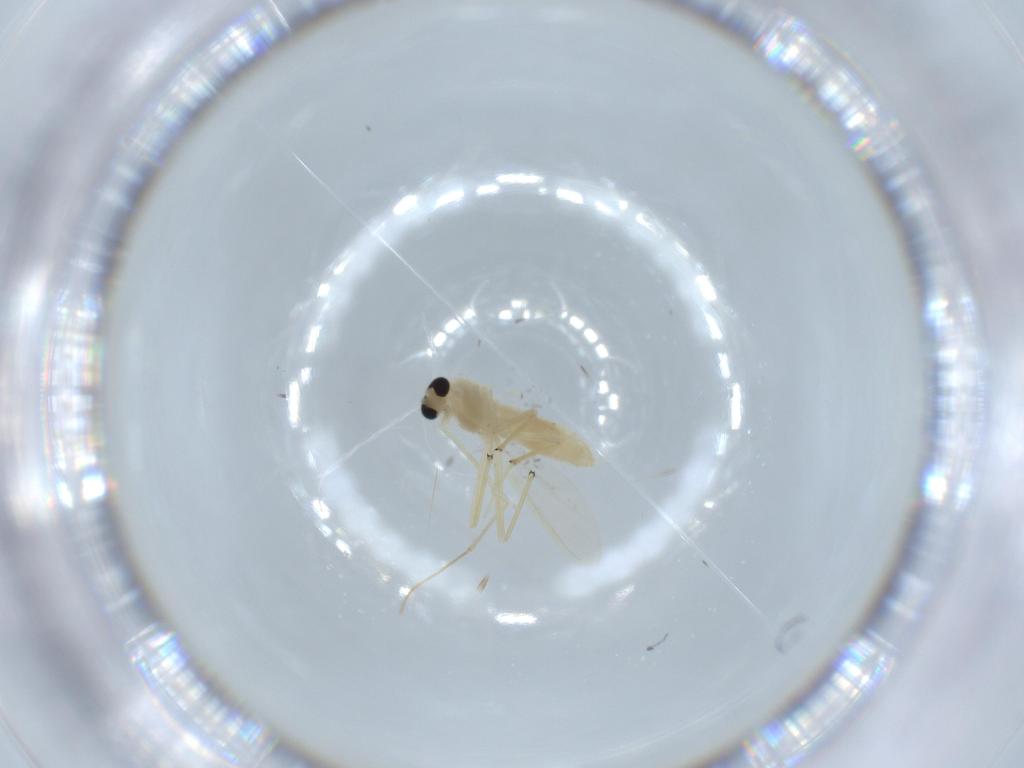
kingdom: Animalia
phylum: Arthropoda
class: Insecta
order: Diptera
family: Chironomidae
